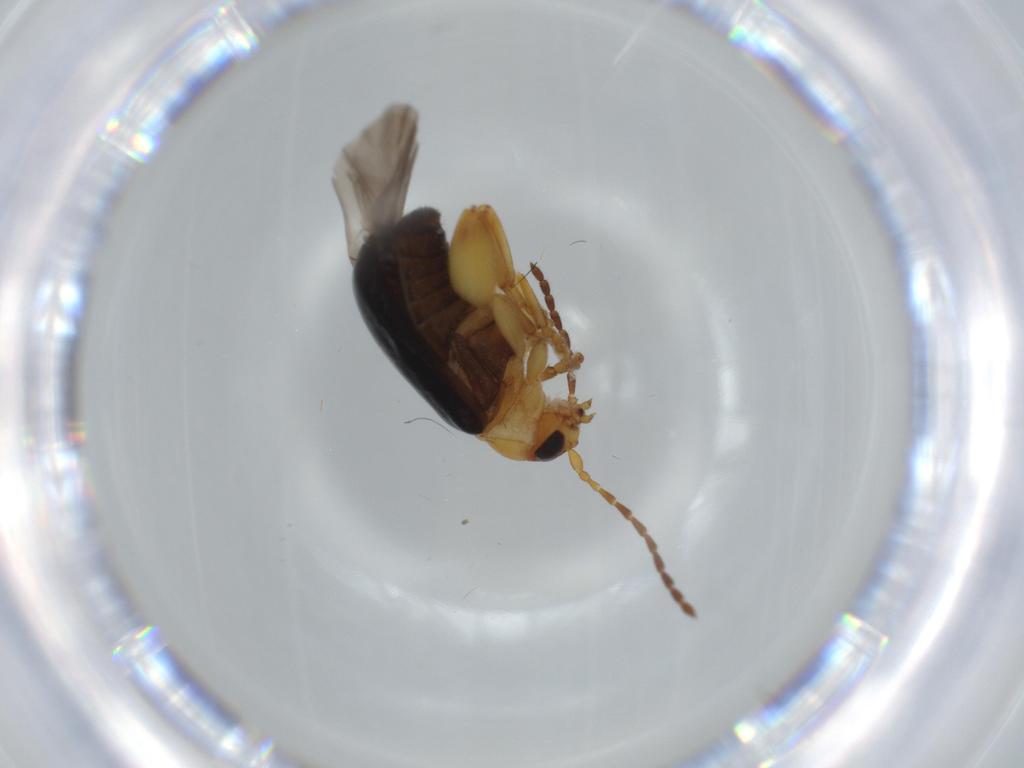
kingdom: Animalia
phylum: Arthropoda
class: Insecta
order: Coleoptera
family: Chrysomelidae
